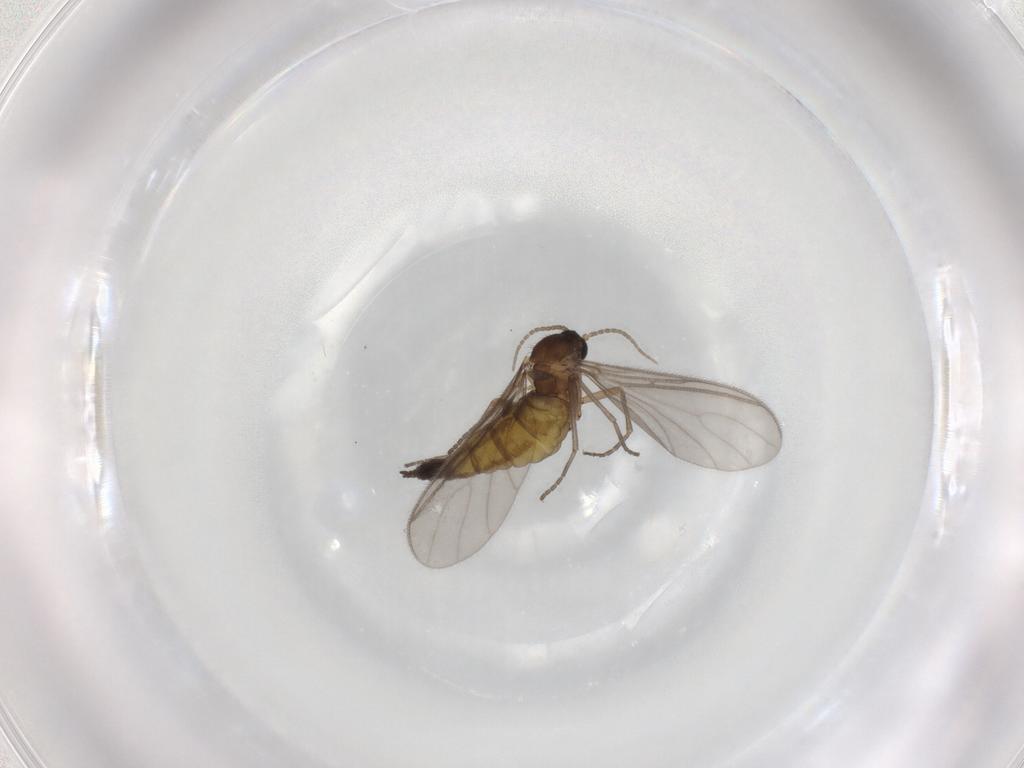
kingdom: Animalia
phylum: Arthropoda
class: Insecta
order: Diptera
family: Sciaridae
